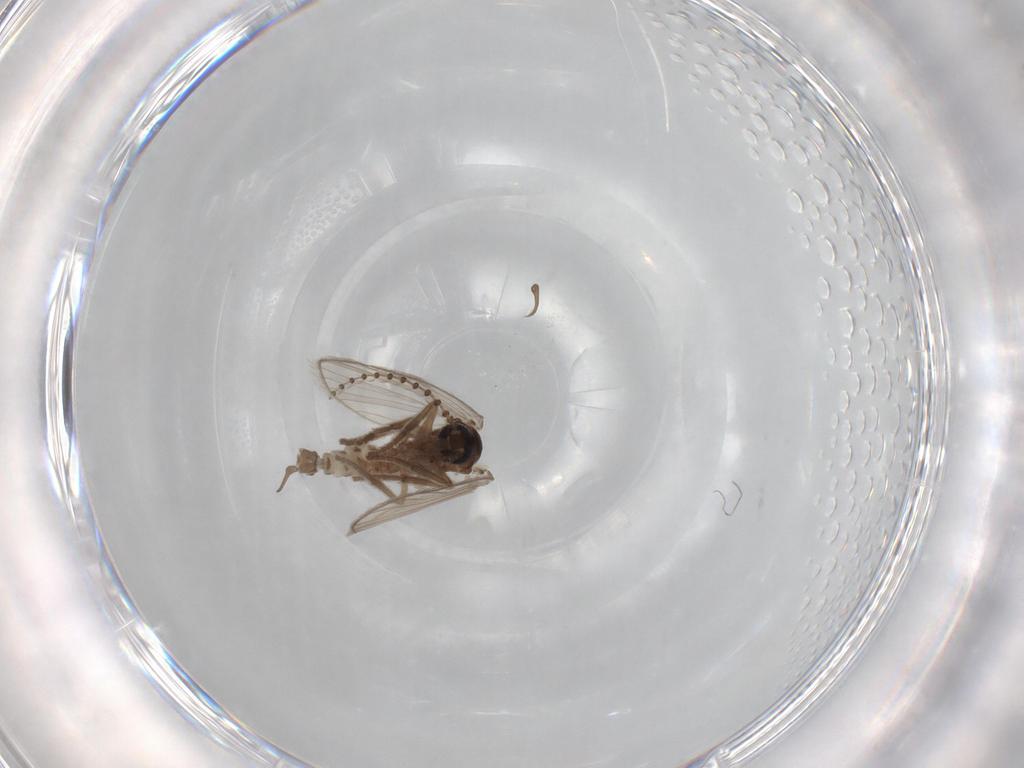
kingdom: Animalia
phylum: Arthropoda
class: Insecta
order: Diptera
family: Psychodidae
